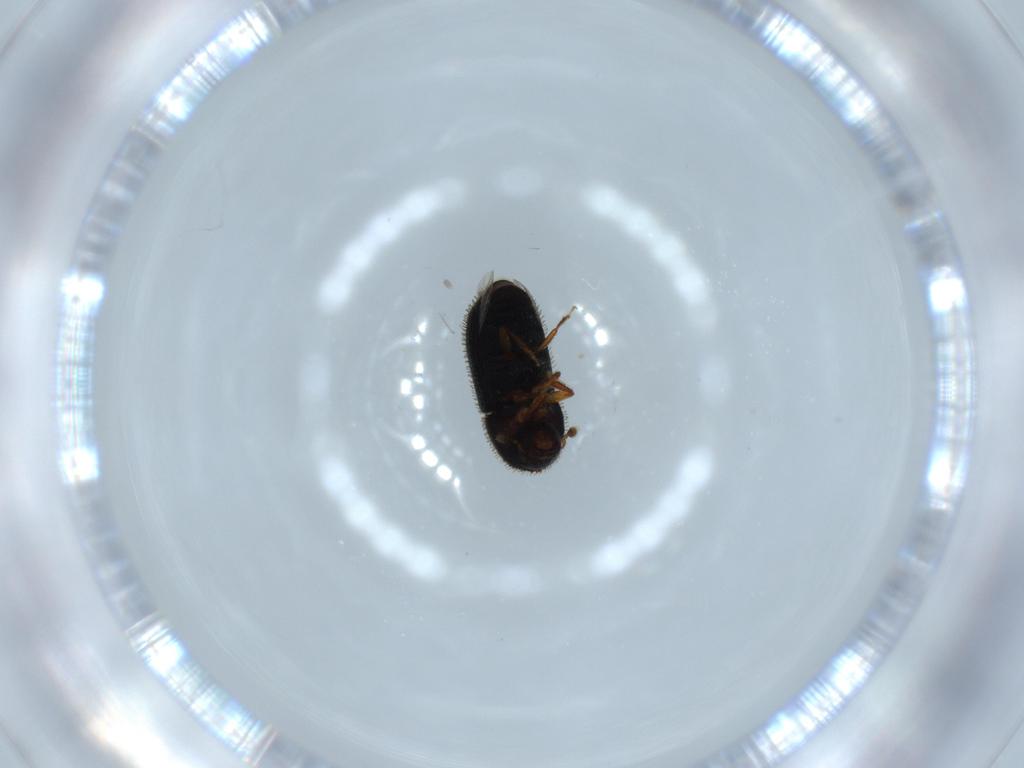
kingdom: Animalia
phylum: Arthropoda
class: Insecta
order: Coleoptera
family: Curculionidae
